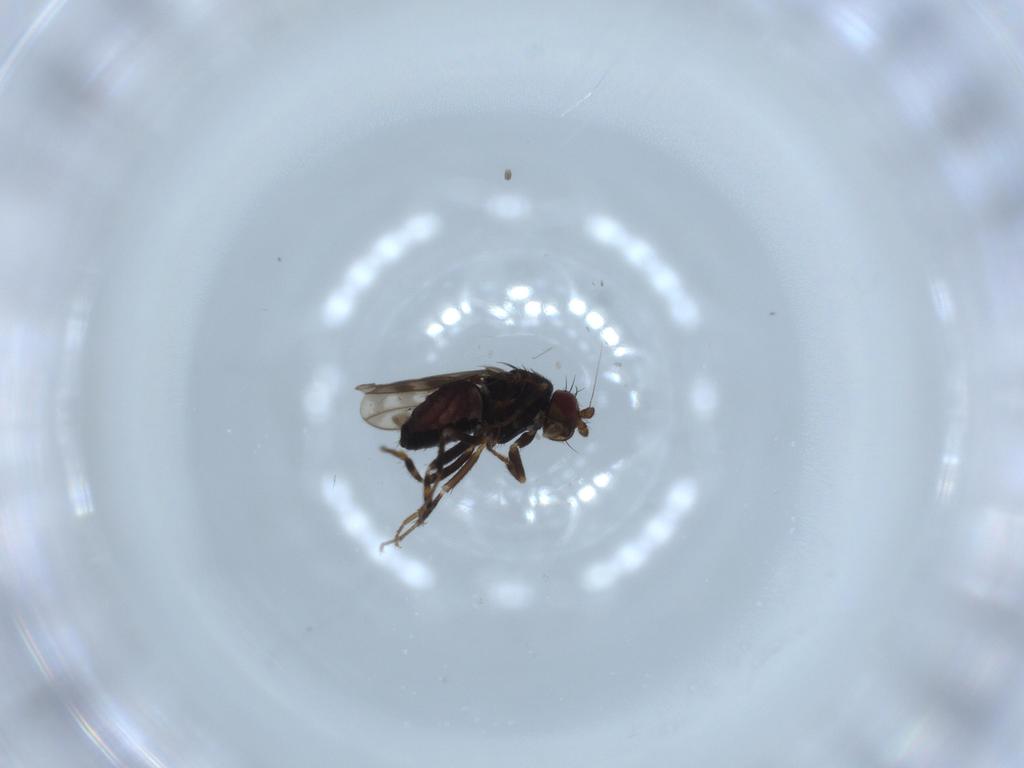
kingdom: Animalia
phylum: Arthropoda
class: Insecta
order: Diptera
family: Sphaeroceridae
